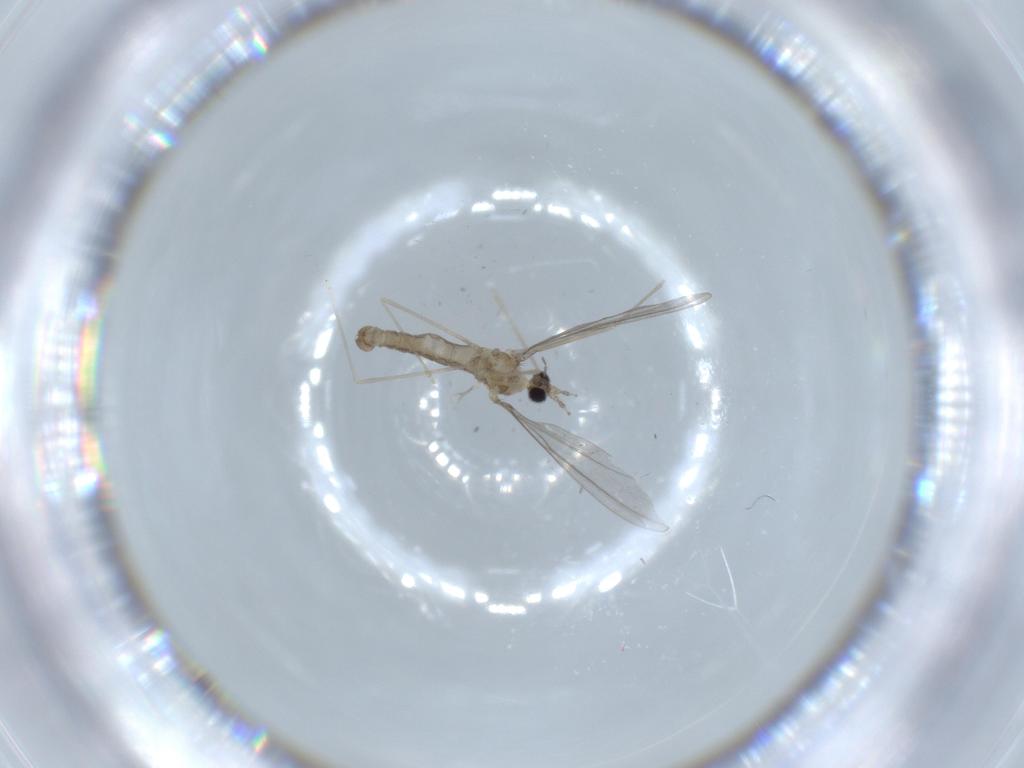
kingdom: Animalia
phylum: Arthropoda
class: Insecta
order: Diptera
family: Cecidomyiidae
